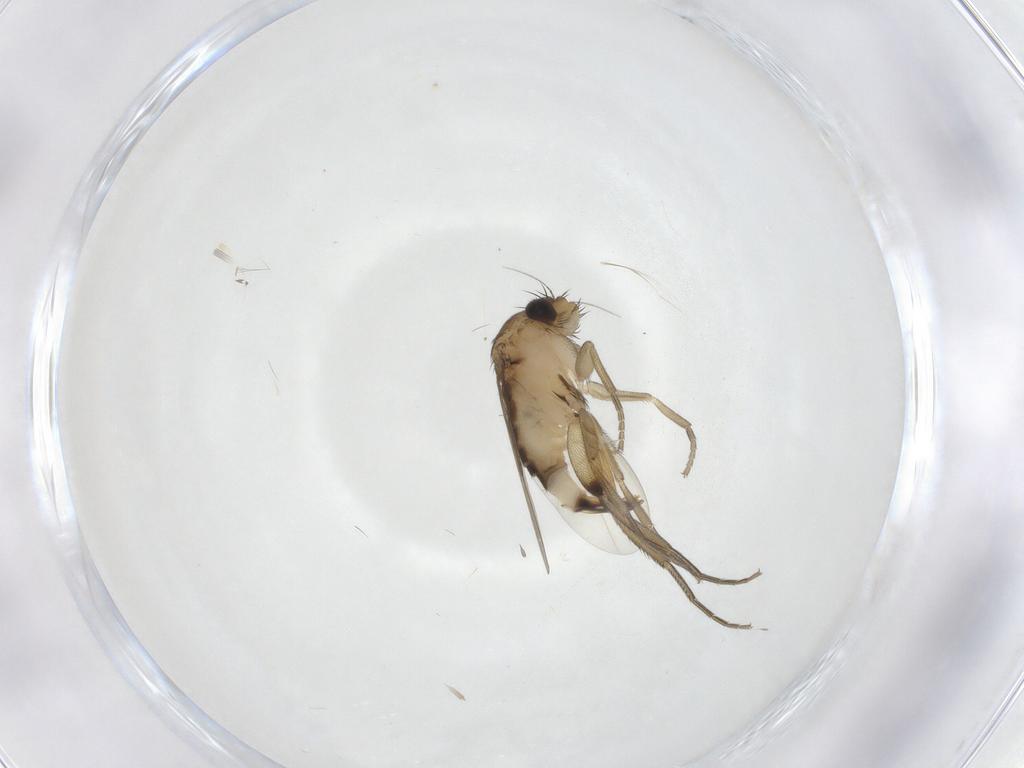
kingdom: Animalia
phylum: Arthropoda
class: Insecta
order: Diptera
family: Phoridae
